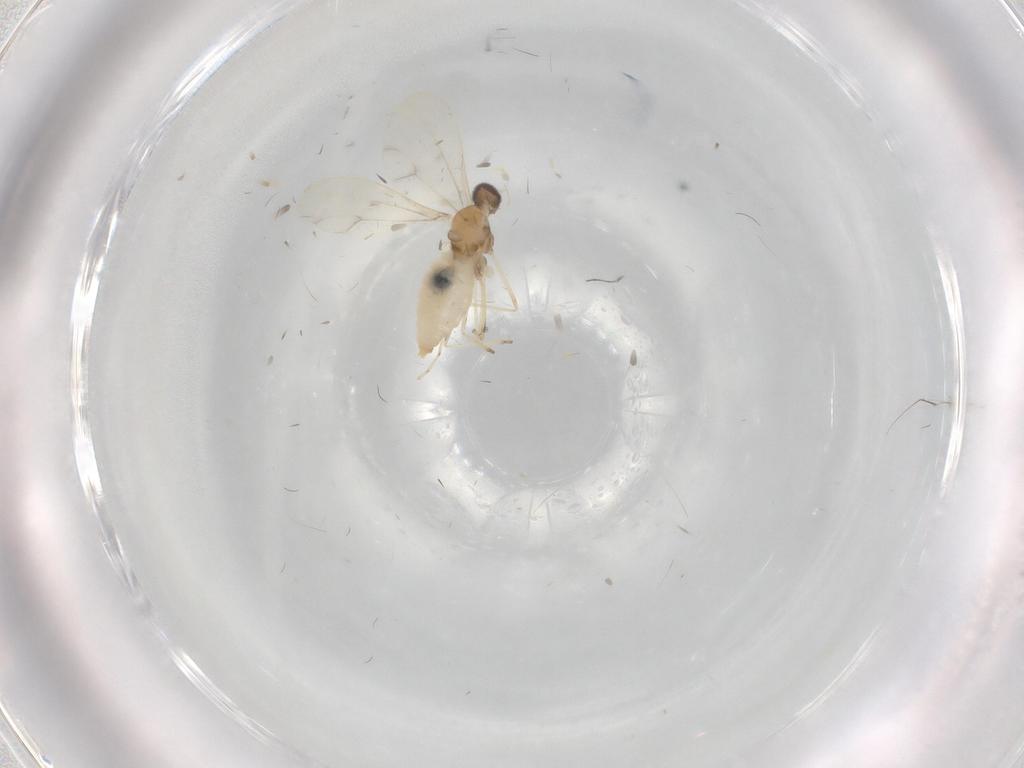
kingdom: Animalia
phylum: Arthropoda
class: Insecta
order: Diptera
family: Cecidomyiidae
